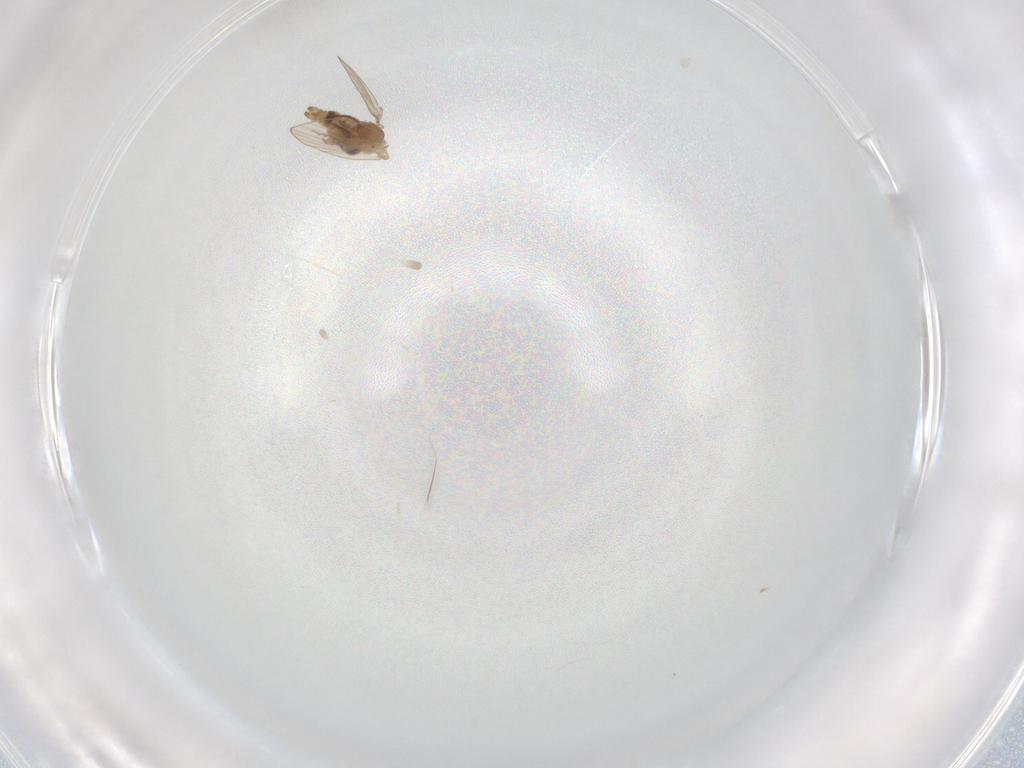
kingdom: Animalia
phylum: Arthropoda
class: Insecta
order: Diptera
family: Psychodidae
